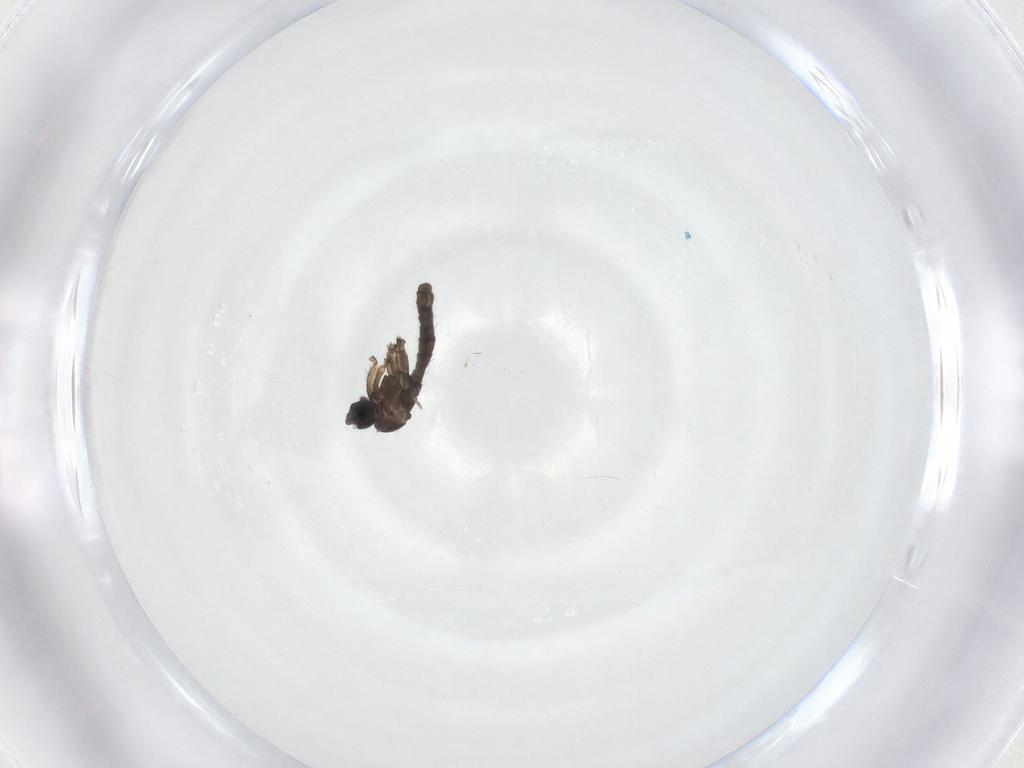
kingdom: Animalia
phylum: Arthropoda
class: Insecta
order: Diptera
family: Sciaridae
